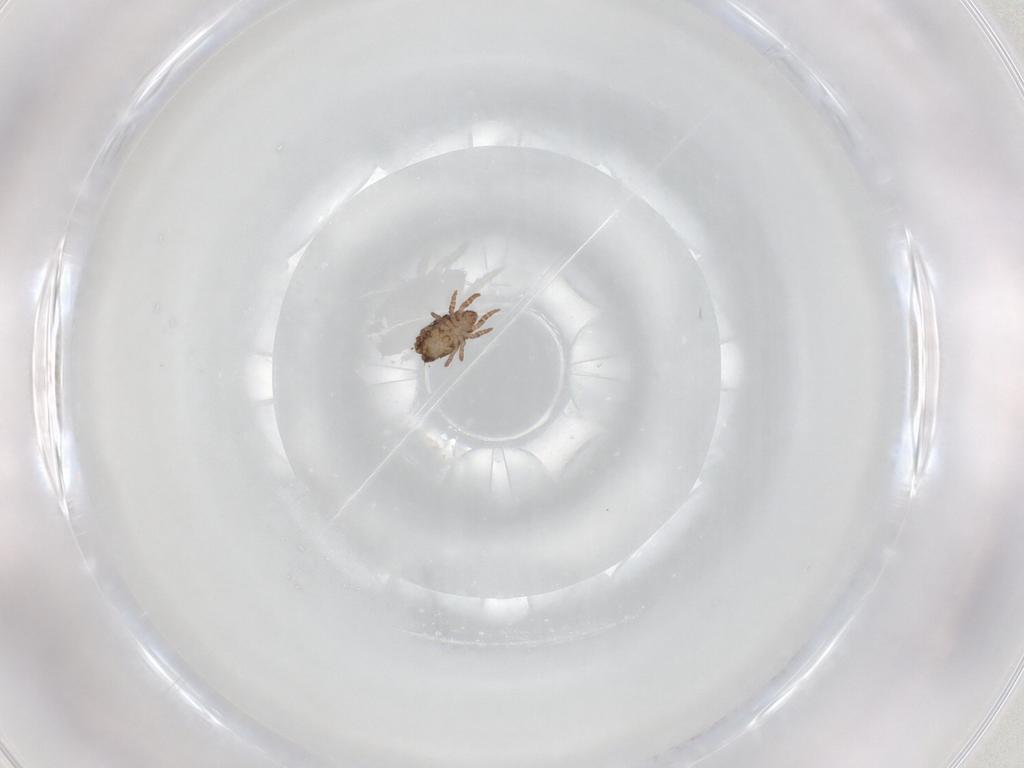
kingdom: Animalia
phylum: Arthropoda
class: Arachnida
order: Sarcoptiformes
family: Crotoniidae
